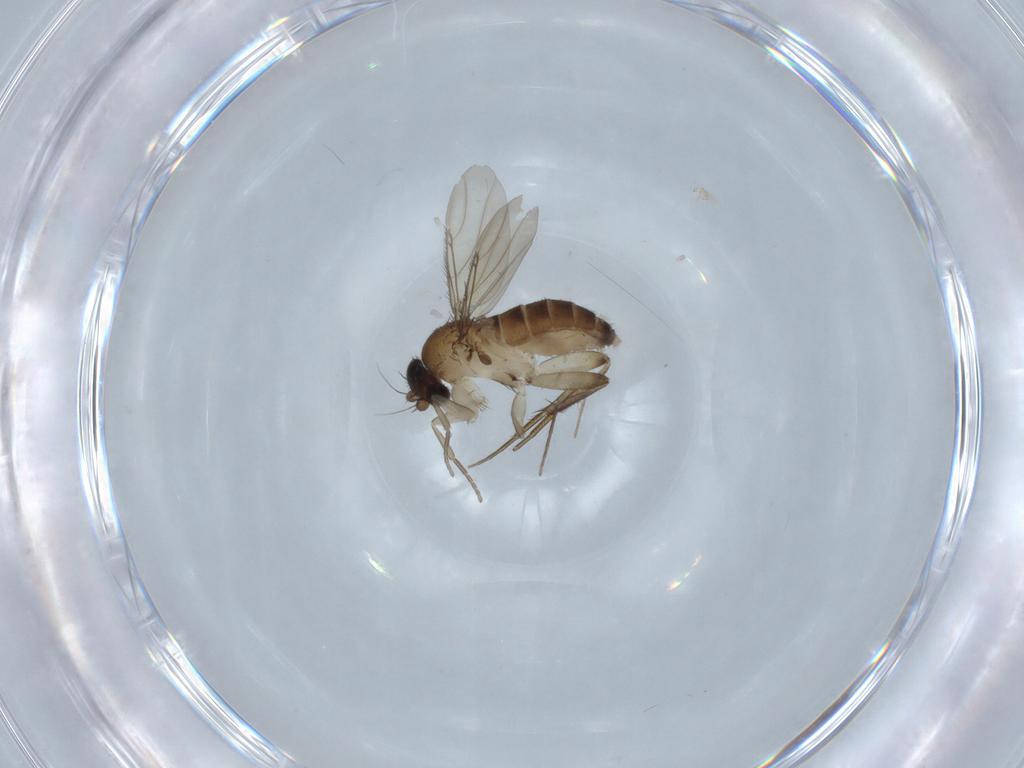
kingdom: Animalia
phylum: Arthropoda
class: Insecta
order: Diptera
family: Phoridae
